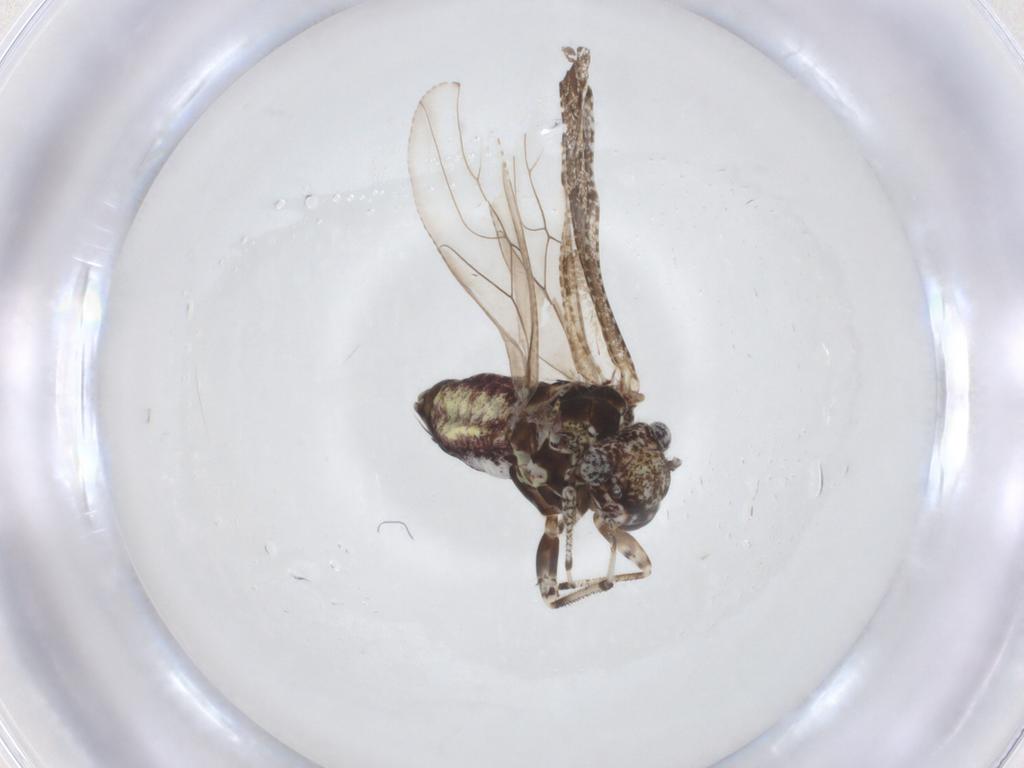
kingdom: Animalia
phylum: Arthropoda
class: Insecta
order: Psocodea
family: Myopsocidae
